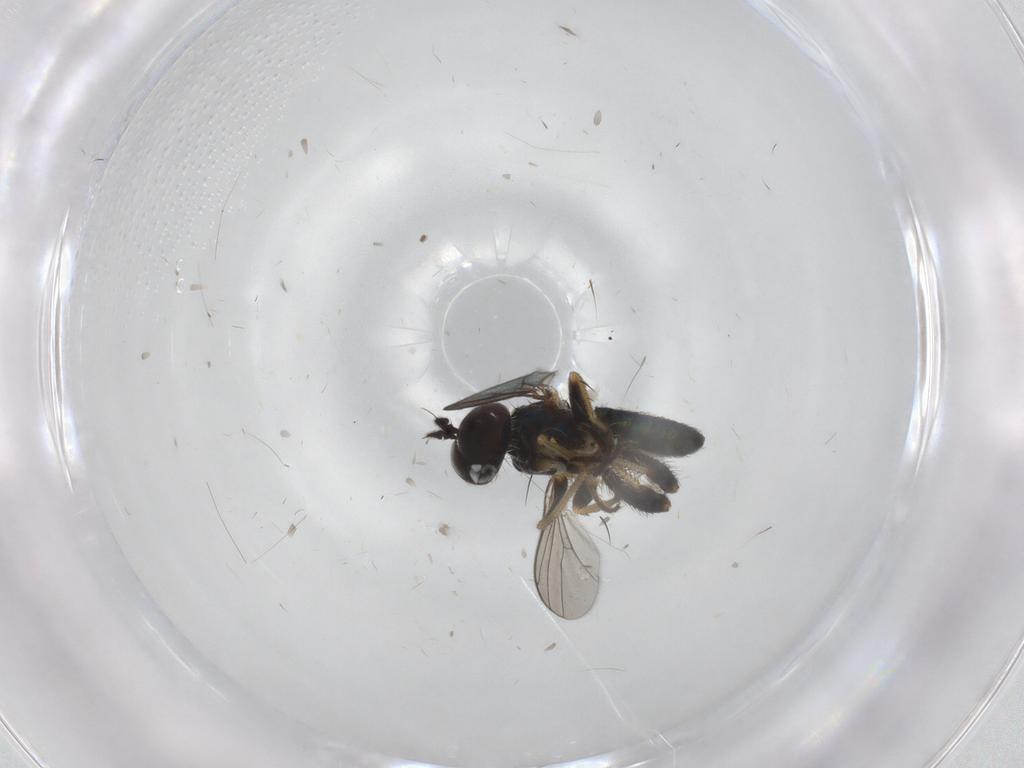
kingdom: Animalia
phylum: Arthropoda
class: Insecta
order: Diptera
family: Ceratopogonidae
